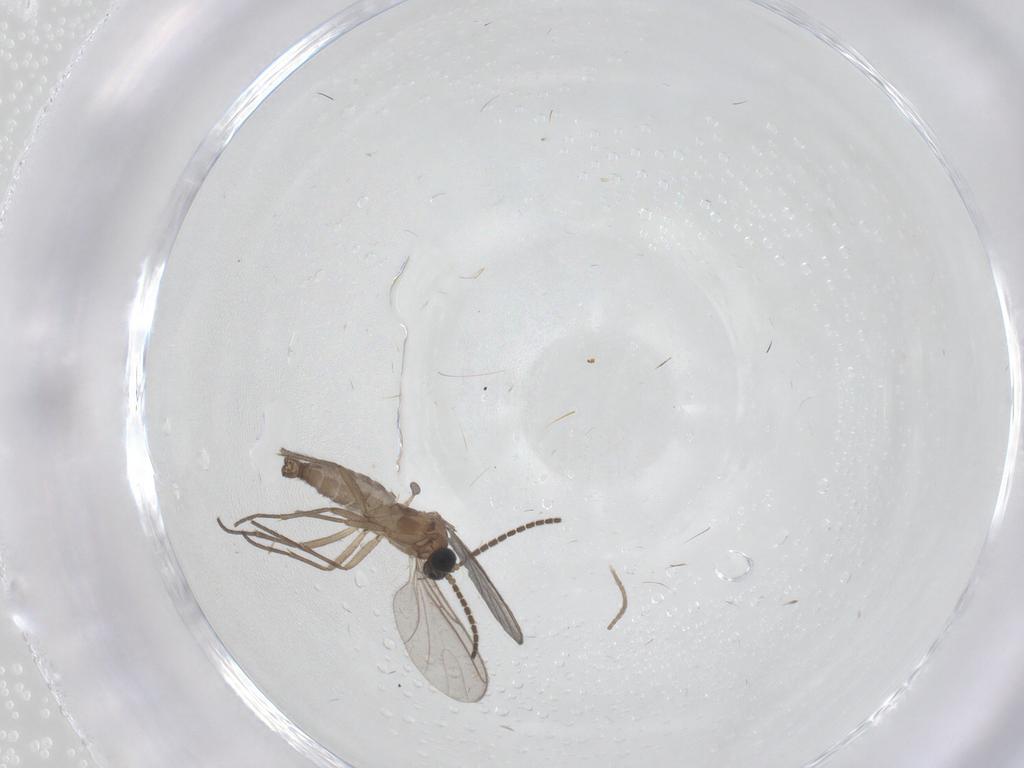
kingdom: Animalia
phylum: Arthropoda
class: Insecta
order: Diptera
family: Sciaridae
